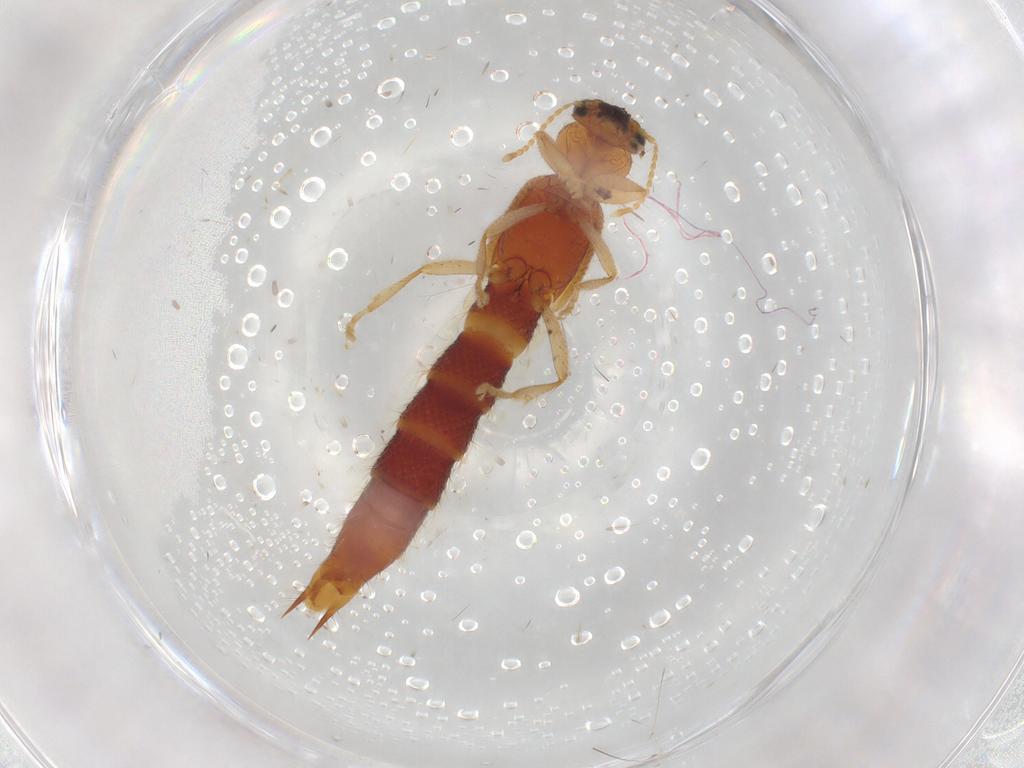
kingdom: Animalia
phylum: Arthropoda
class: Insecta
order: Coleoptera
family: Staphylinidae
